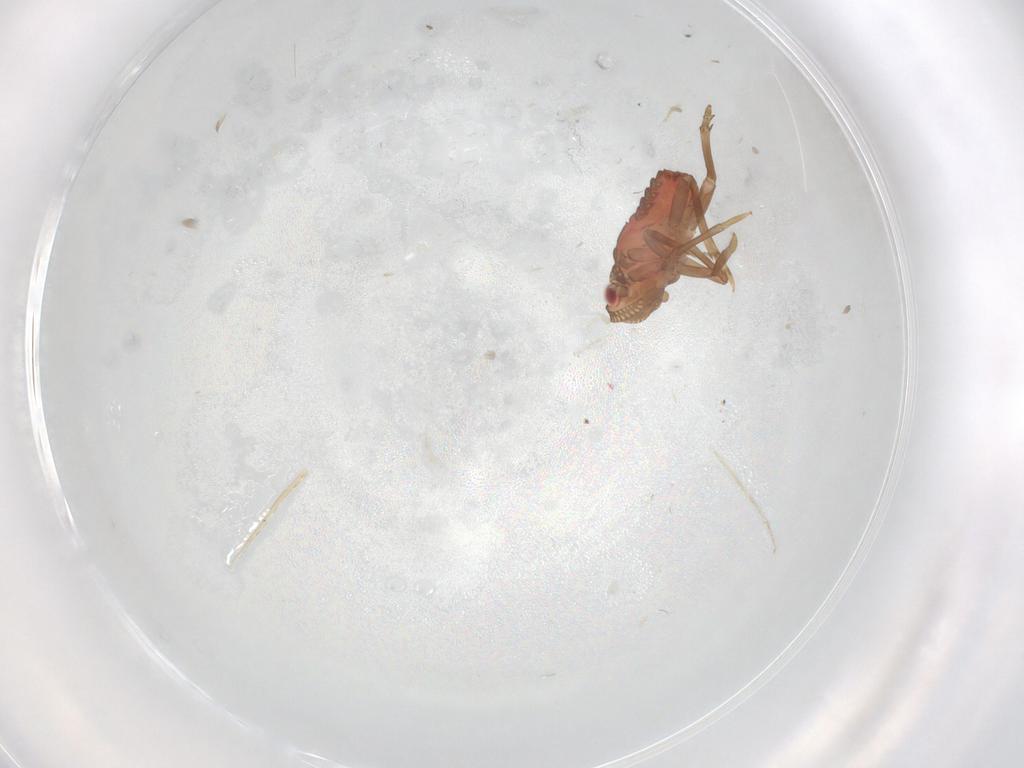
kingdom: Animalia
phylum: Arthropoda
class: Insecta
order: Hemiptera
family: Aphididae
